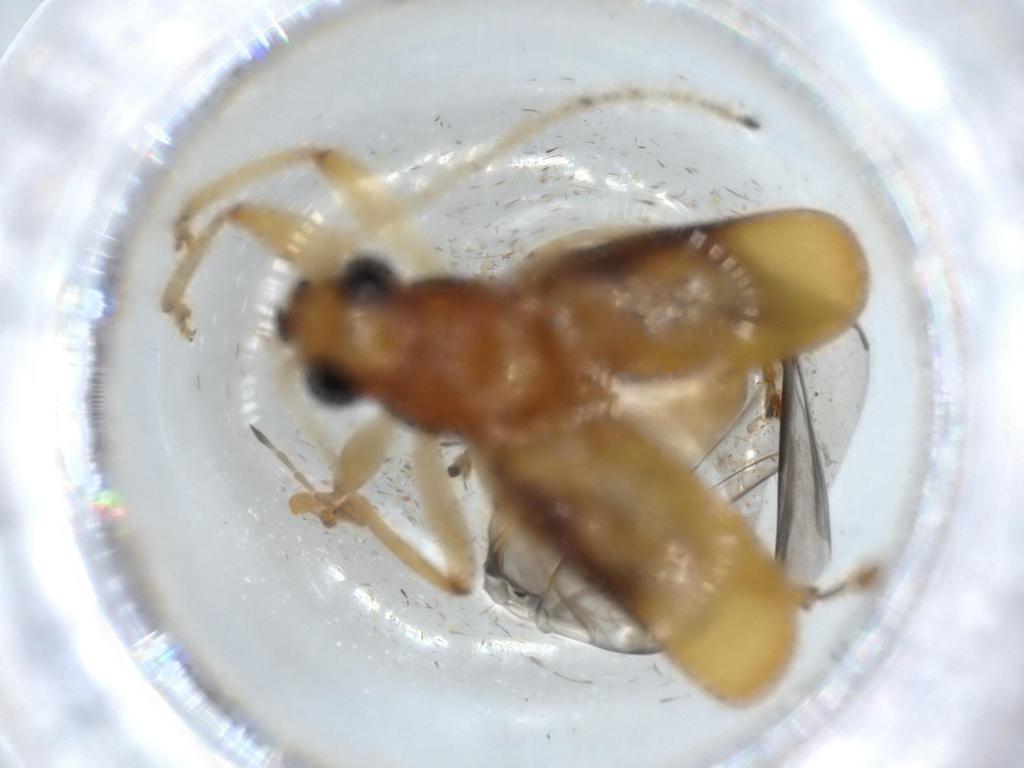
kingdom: Animalia
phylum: Arthropoda
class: Insecta
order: Coleoptera
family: Chrysomelidae
